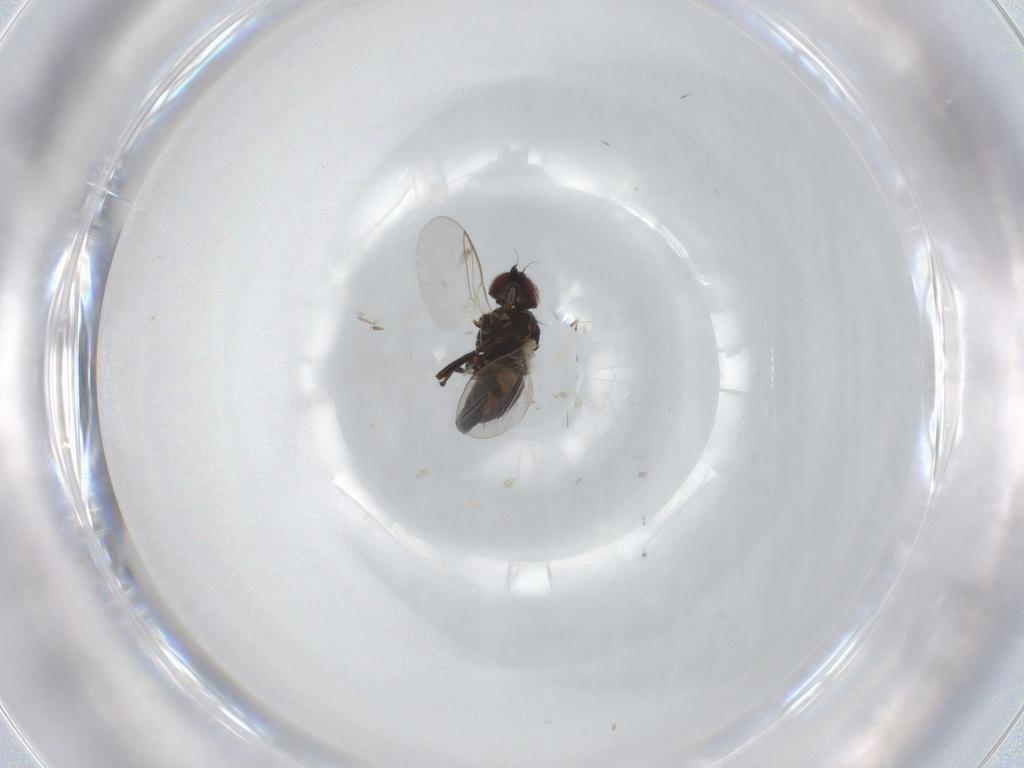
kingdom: Animalia
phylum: Arthropoda
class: Insecta
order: Diptera
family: Agromyzidae
